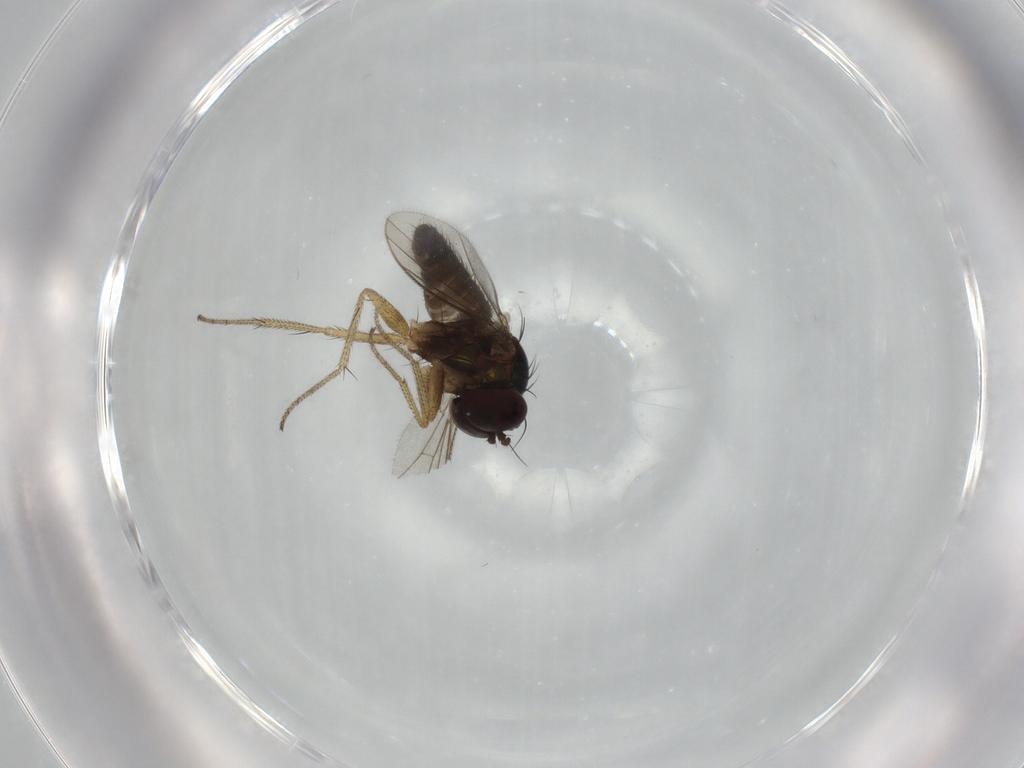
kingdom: Animalia
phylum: Arthropoda
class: Insecta
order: Diptera
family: Dolichopodidae
